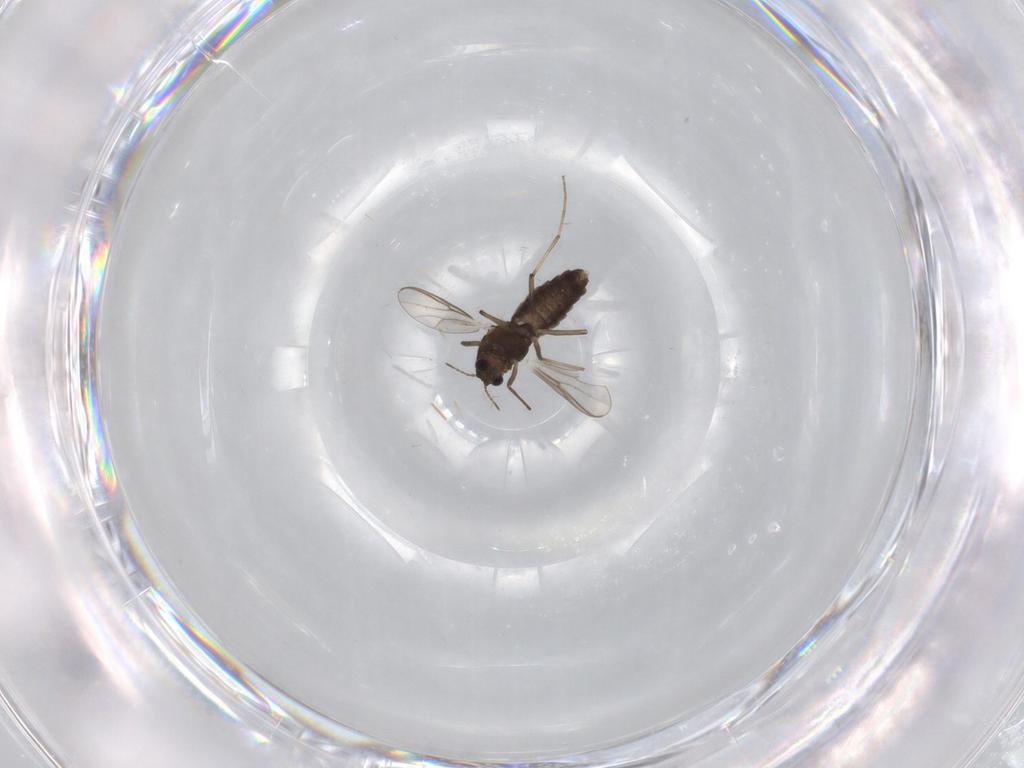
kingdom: Animalia
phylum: Arthropoda
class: Insecta
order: Diptera
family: Chironomidae
